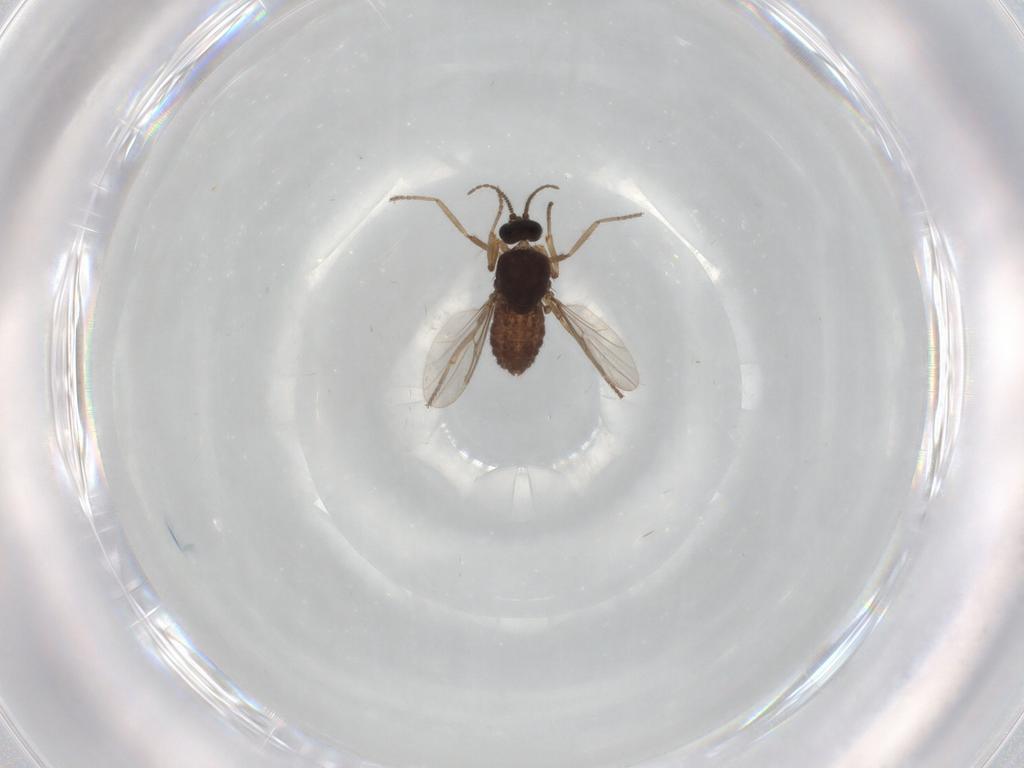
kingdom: Animalia
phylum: Arthropoda
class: Insecta
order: Diptera
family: Ceratopogonidae
